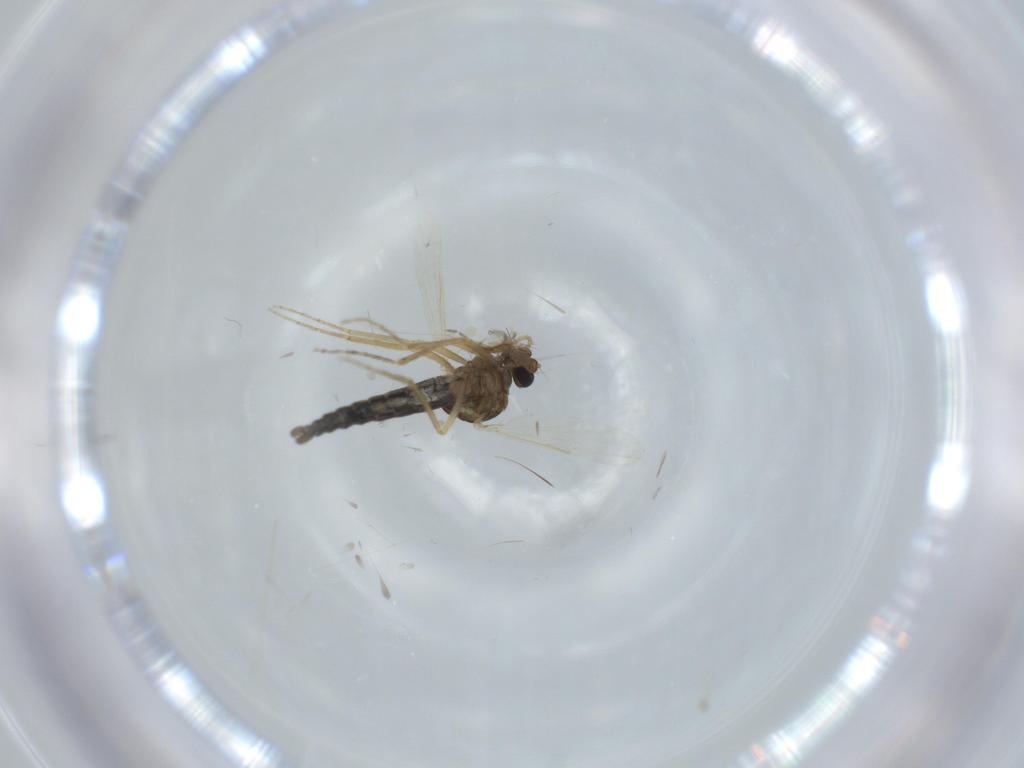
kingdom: Animalia
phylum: Arthropoda
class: Insecta
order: Diptera
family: Ceratopogonidae
